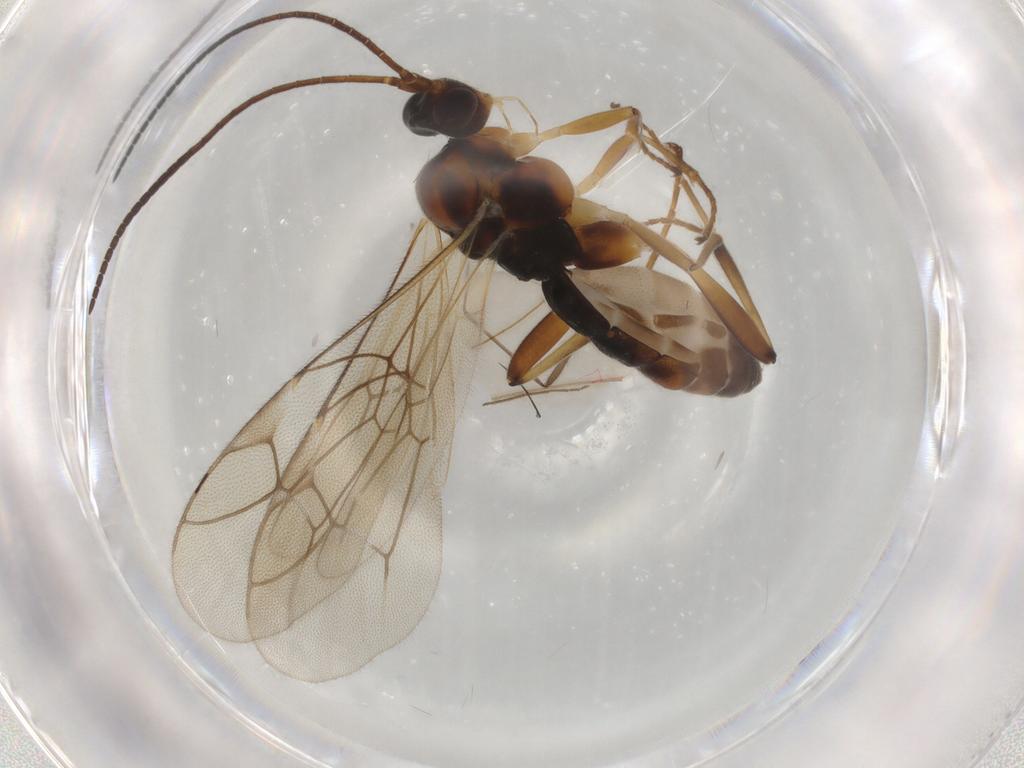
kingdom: Animalia
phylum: Arthropoda
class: Insecta
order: Hymenoptera
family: Ichneumonidae
